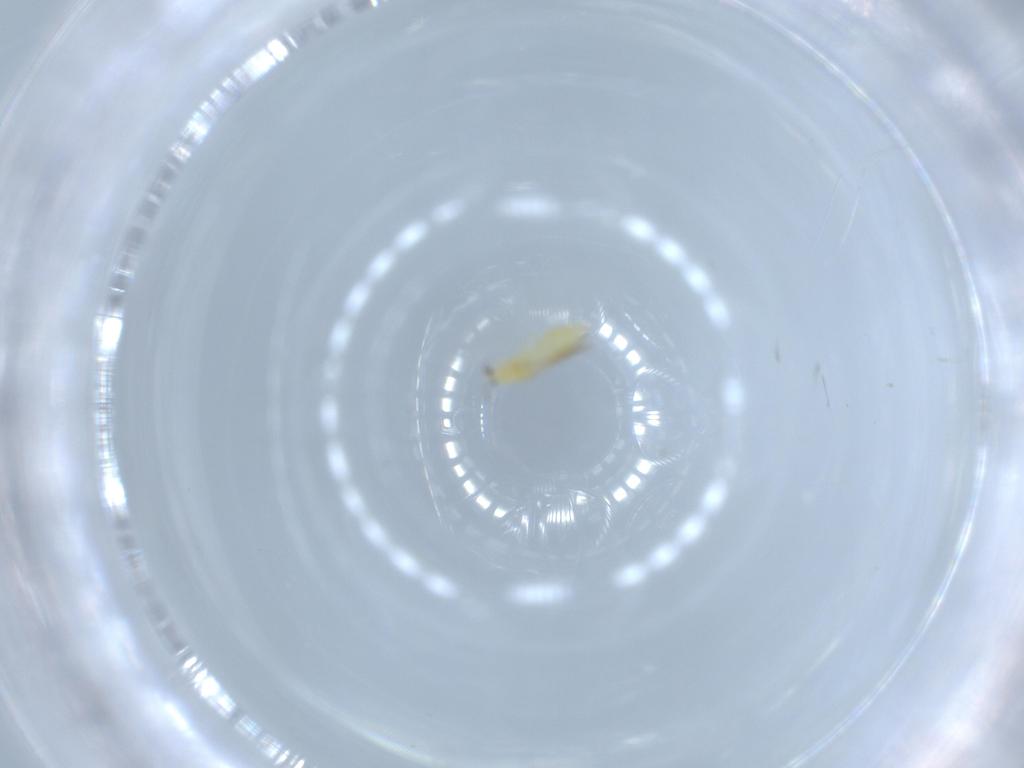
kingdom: Animalia
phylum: Arthropoda
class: Insecta
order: Thysanoptera
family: Thripidae
